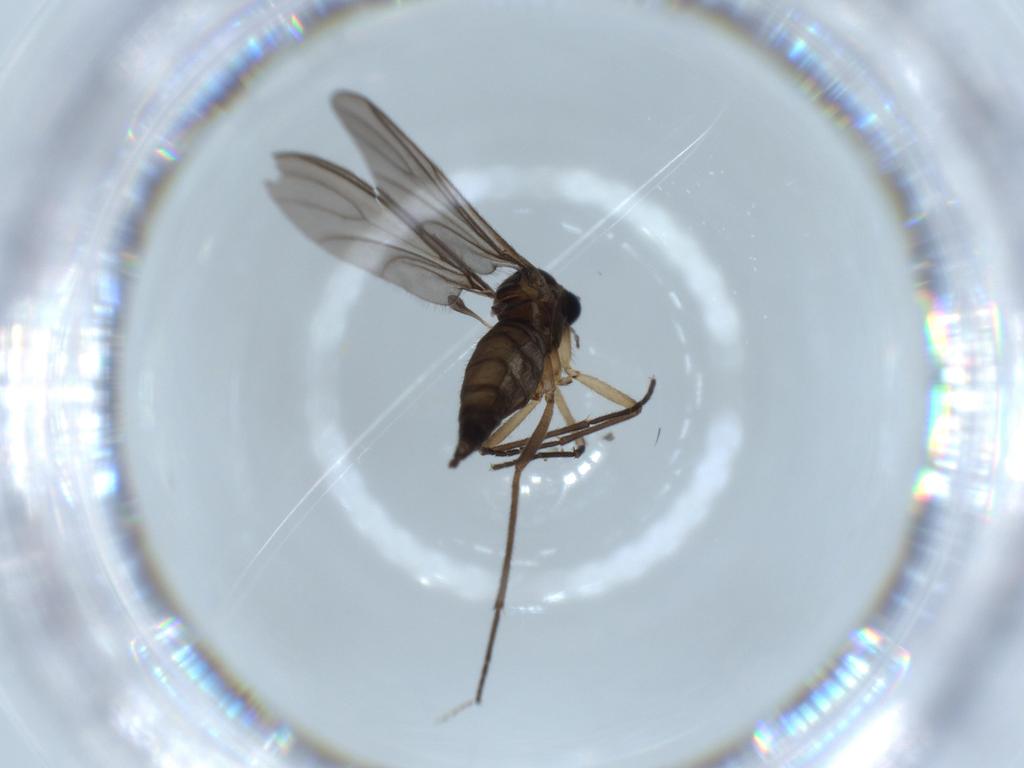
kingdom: Animalia
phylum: Arthropoda
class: Insecta
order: Diptera
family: Sciaridae
